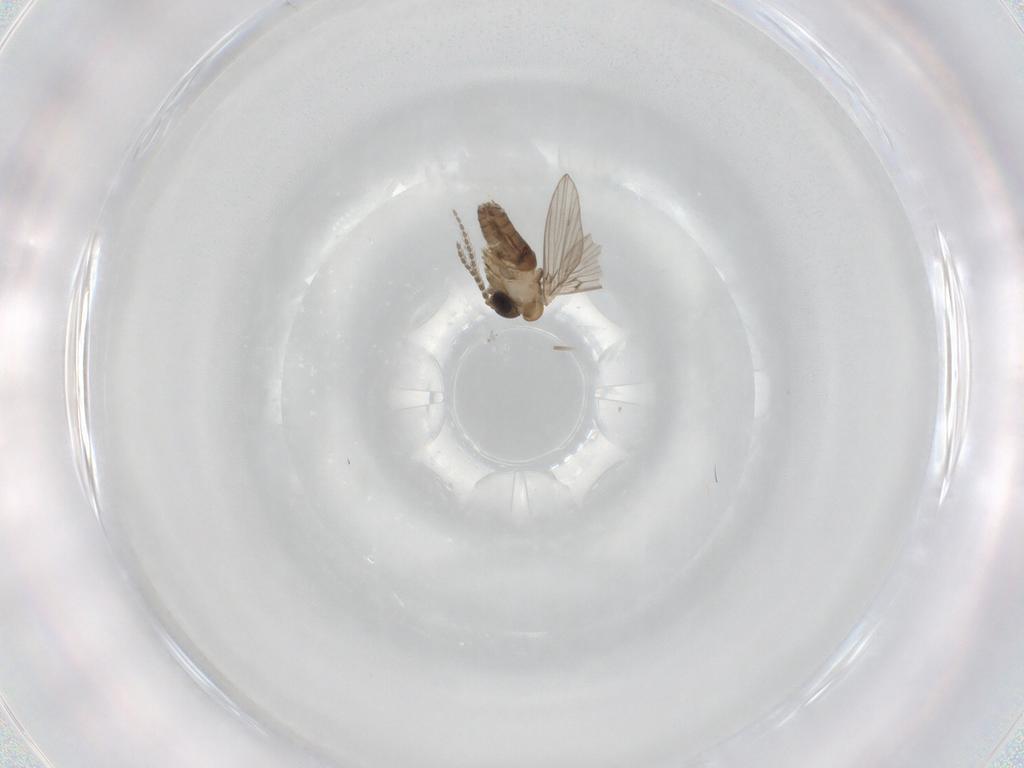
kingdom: Animalia
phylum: Arthropoda
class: Insecta
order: Diptera
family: Psychodidae
